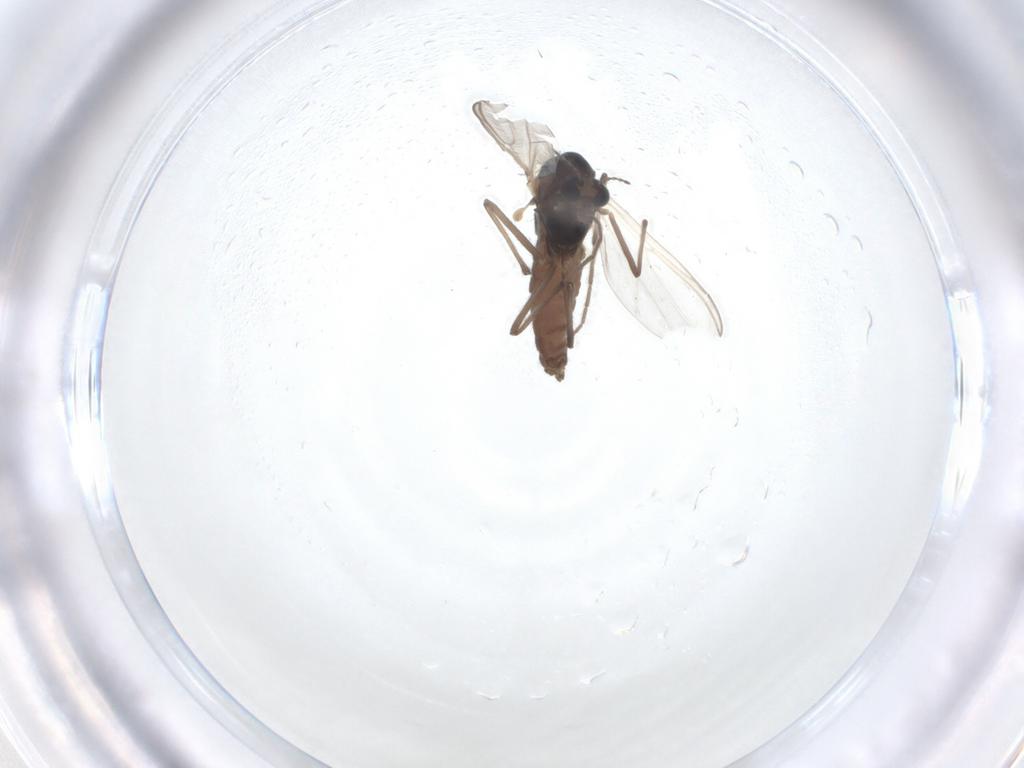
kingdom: Animalia
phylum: Arthropoda
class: Insecta
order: Diptera
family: Chironomidae
